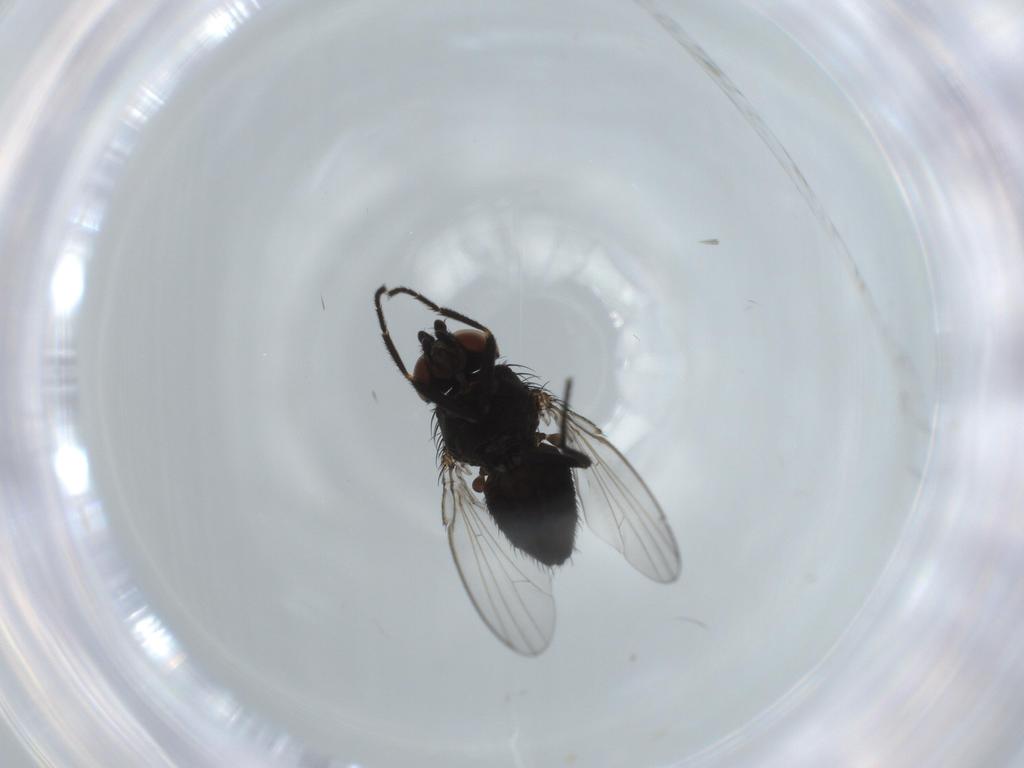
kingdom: Animalia
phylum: Arthropoda
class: Insecta
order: Diptera
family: Milichiidae
